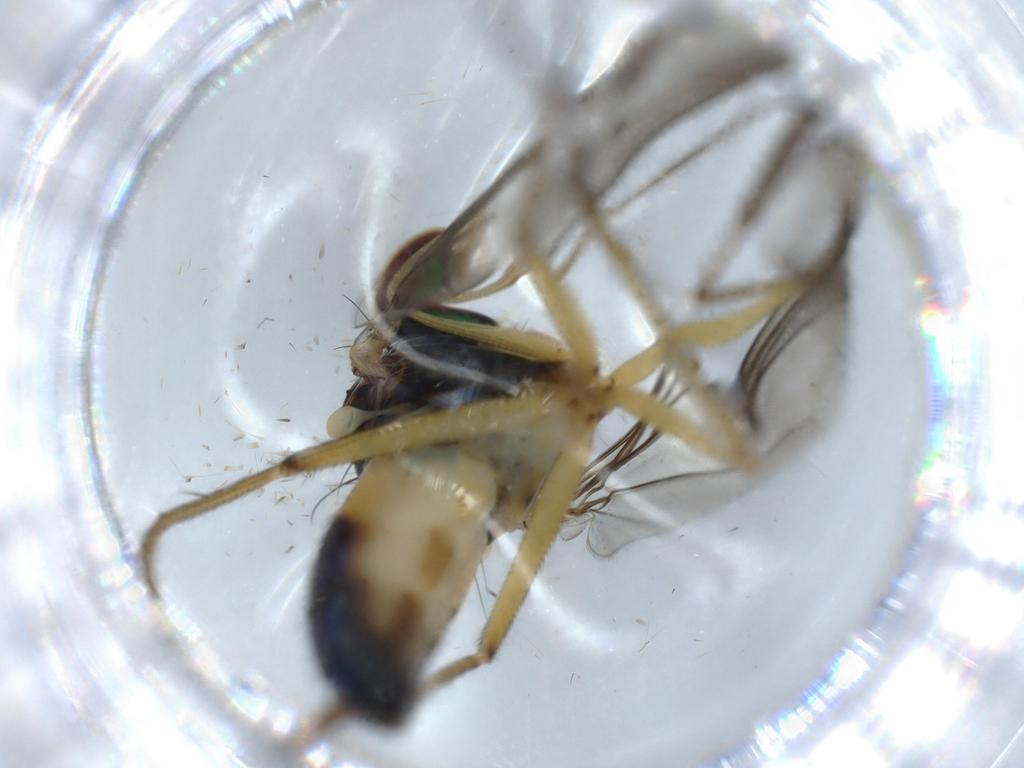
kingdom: Animalia
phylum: Arthropoda
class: Insecta
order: Diptera
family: Dolichopodidae
